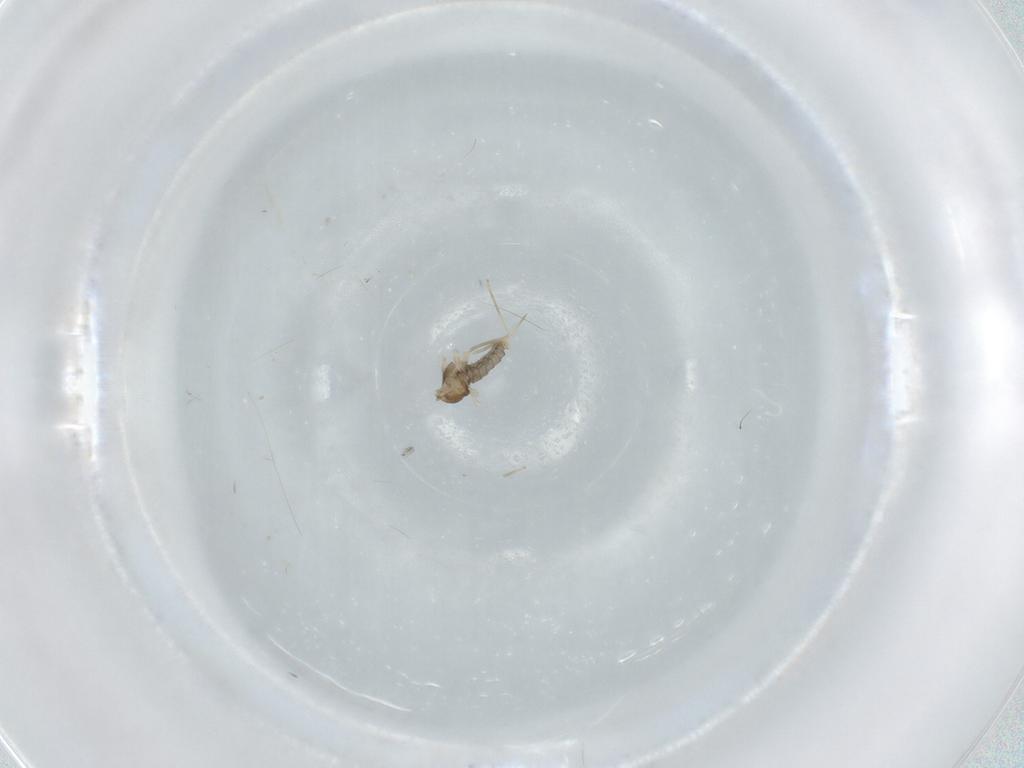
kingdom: Animalia
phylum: Arthropoda
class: Insecta
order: Diptera
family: Cecidomyiidae
